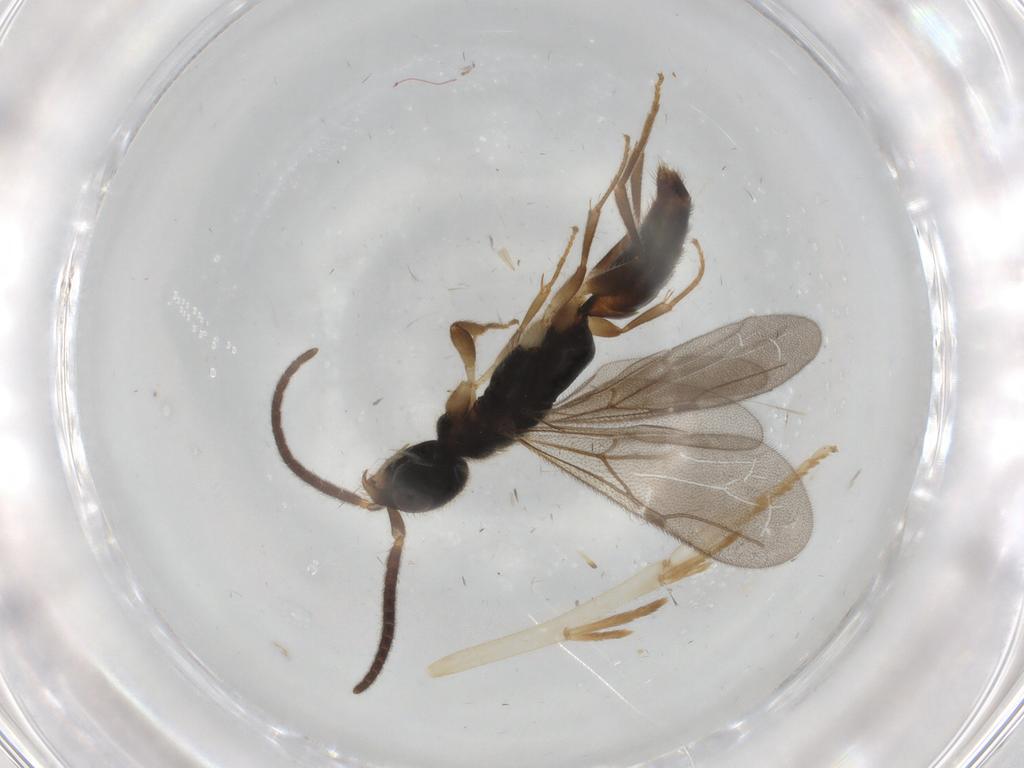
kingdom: Animalia
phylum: Arthropoda
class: Insecta
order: Hymenoptera
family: Bethylidae
